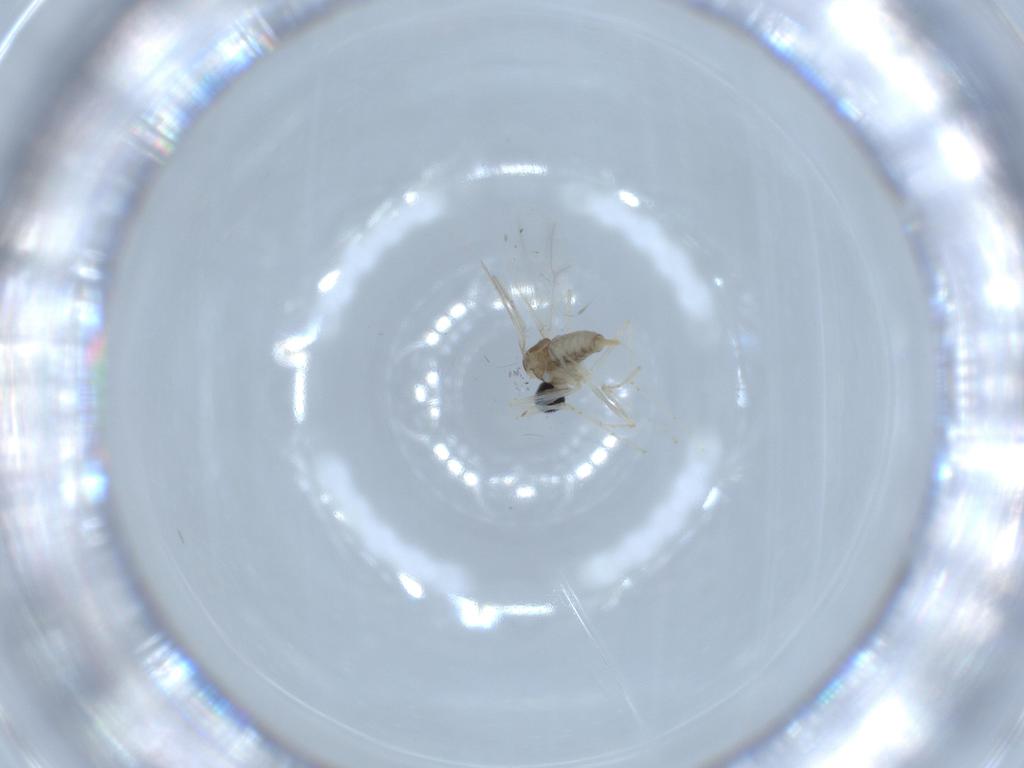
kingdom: Animalia
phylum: Arthropoda
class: Insecta
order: Diptera
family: Cecidomyiidae
